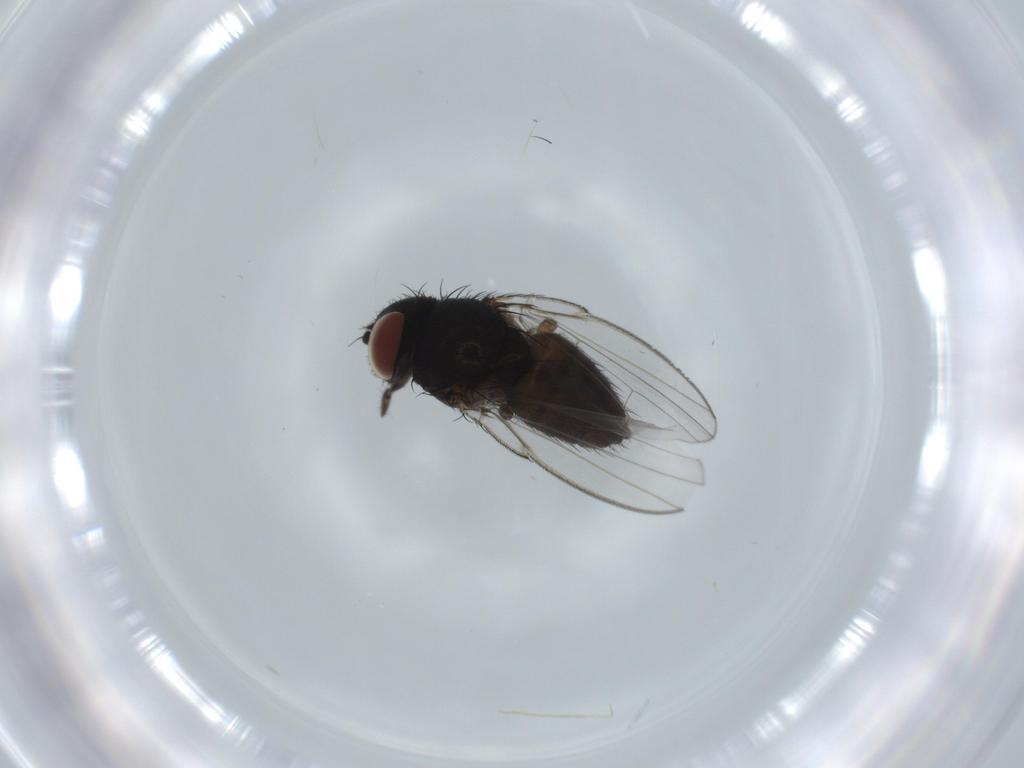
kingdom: Animalia
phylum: Arthropoda
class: Insecta
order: Diptera
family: Milichiidae
